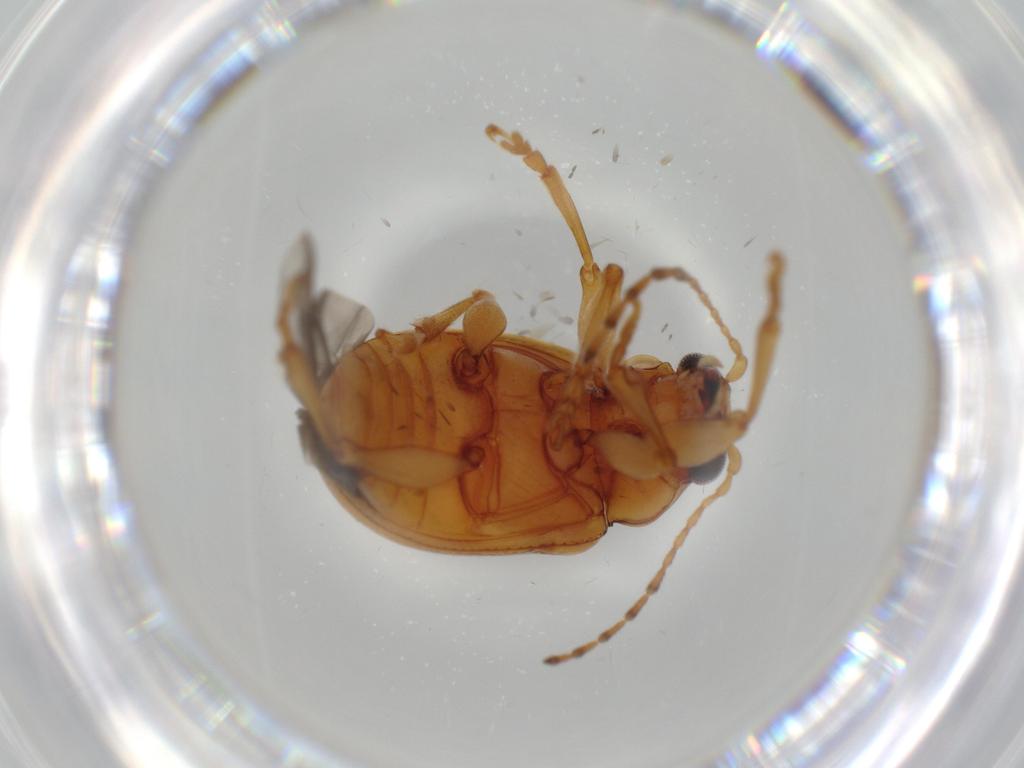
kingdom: Animalia
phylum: Arthropoda
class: Insecta
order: Coleoptera
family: Chrysomelidae
